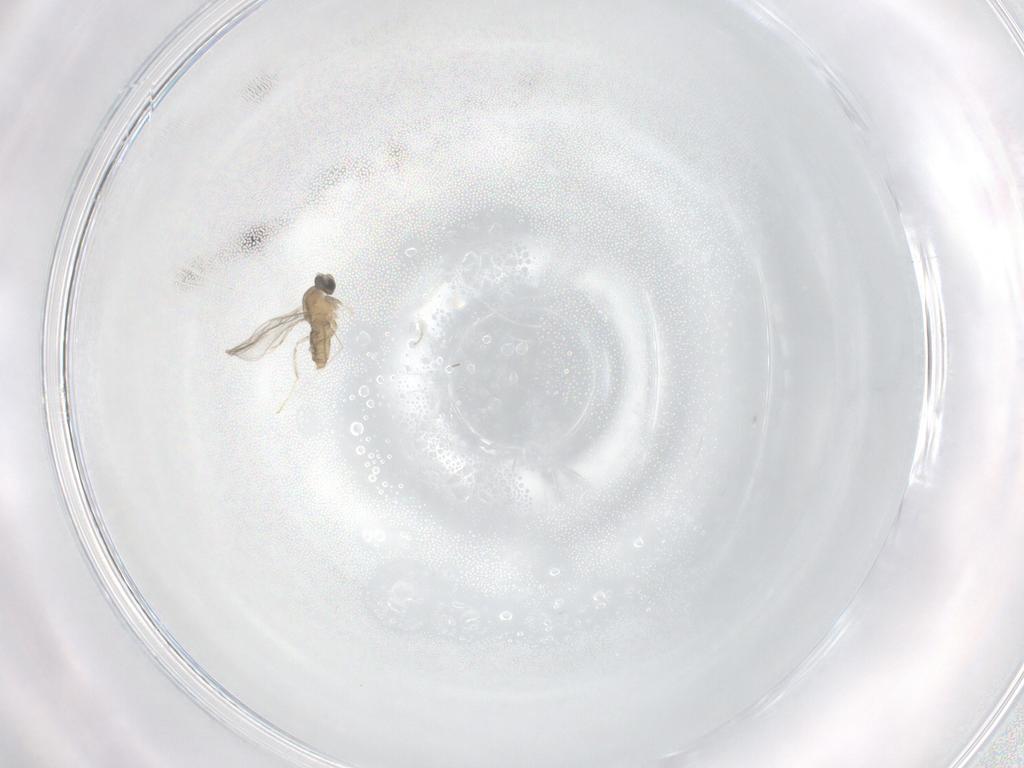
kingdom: Animalia
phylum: Arthropoda
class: Insecta
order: Diptera
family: Cecidomyiidae
